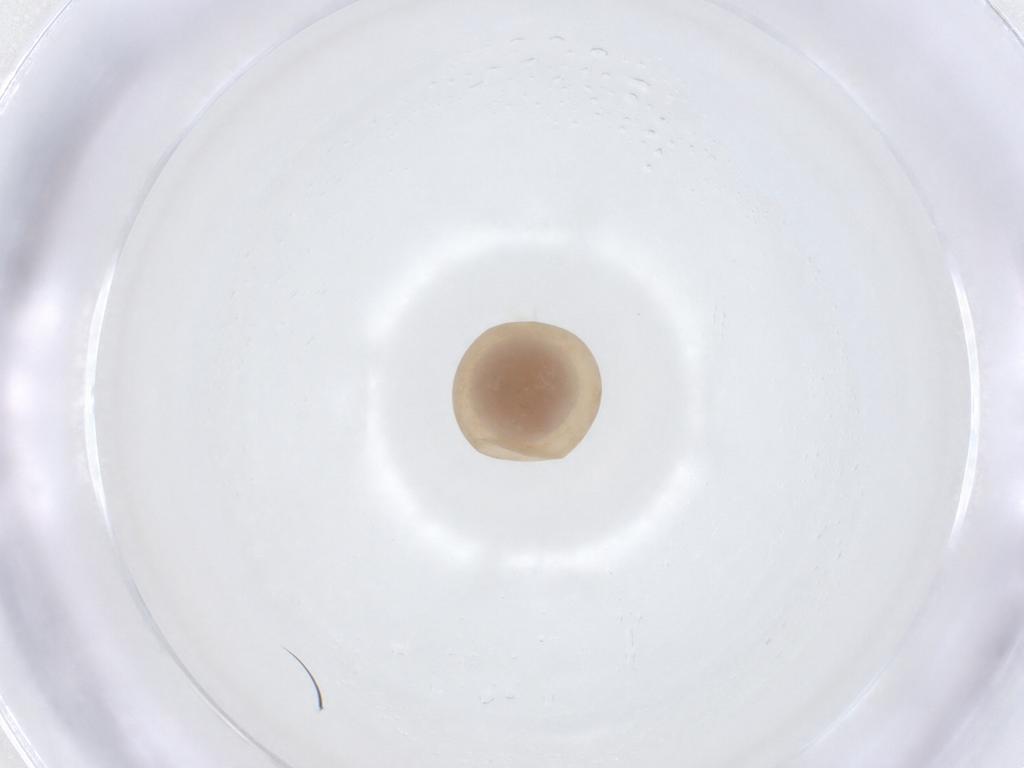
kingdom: Animalia
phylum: Arthropoda
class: Insecta
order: Hymenoptera
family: Scelionidae
